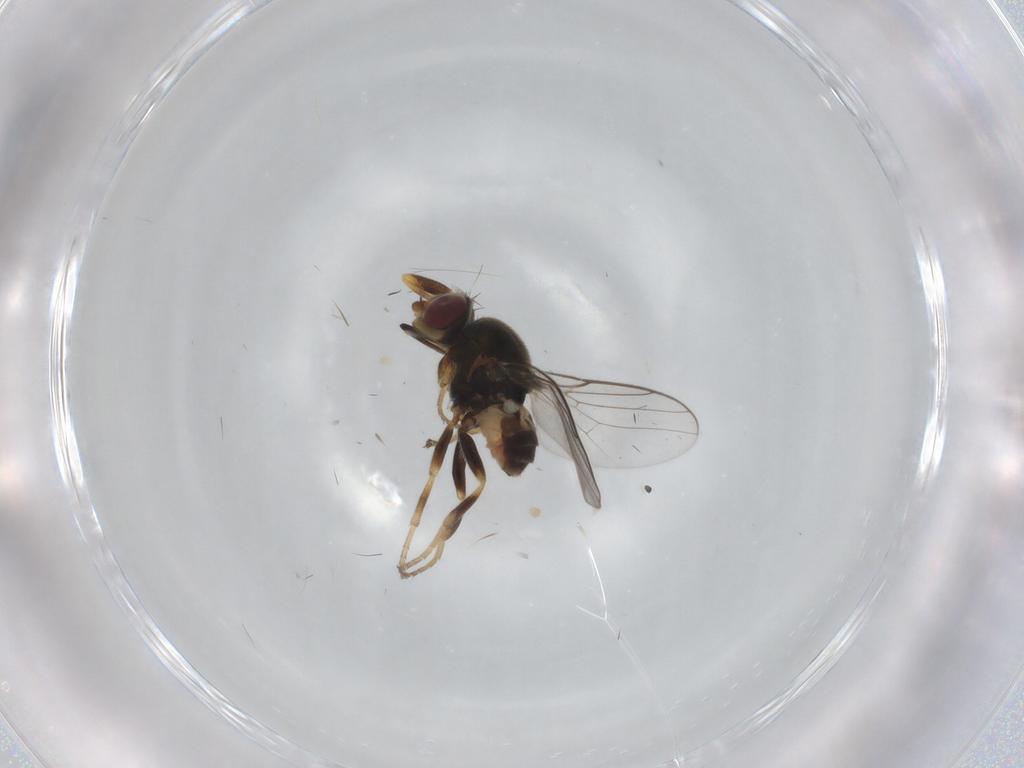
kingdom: Animalia
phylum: Arthropoda
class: Insecta
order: Diptera
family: Chloropidae
